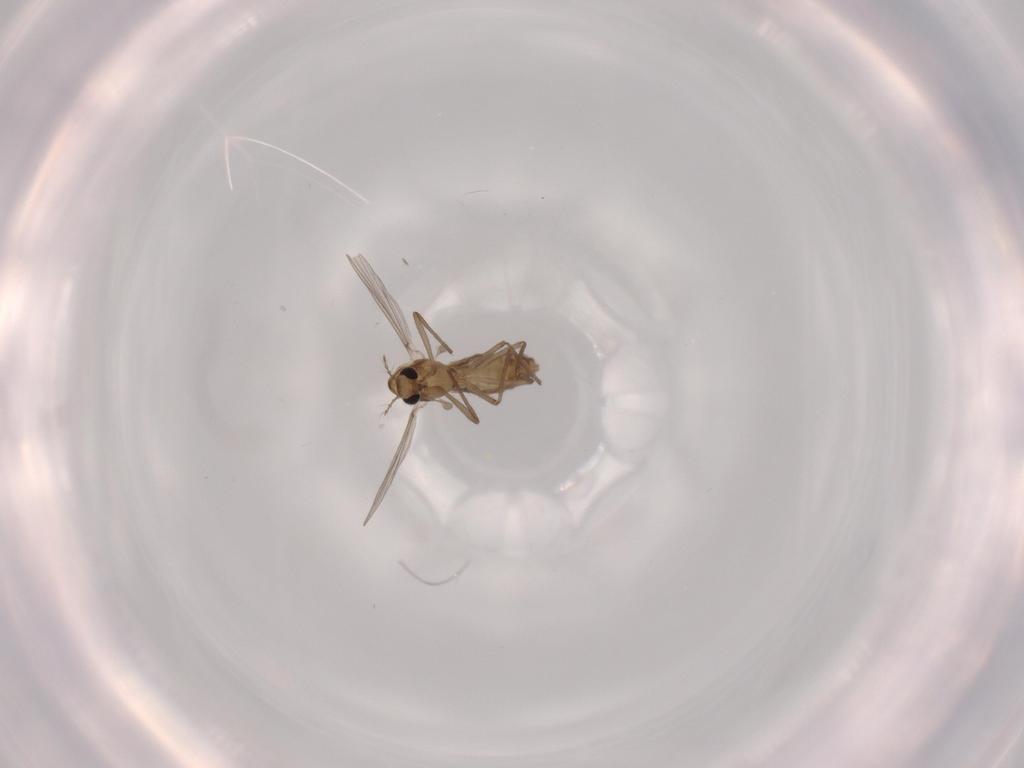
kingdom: Animalia
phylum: Arthropoda
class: Insecta
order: Diptera
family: Chironomidae
